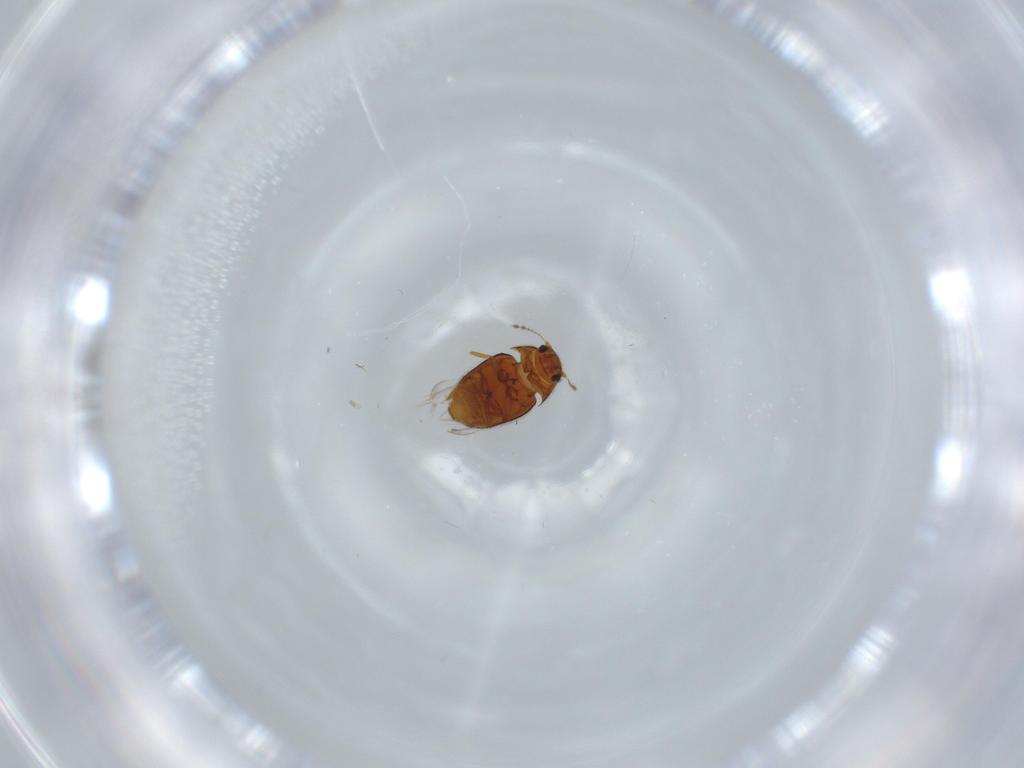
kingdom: Animalia
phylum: Arthropoda
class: Insecta
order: Coleoptera
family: Ptiliidae
